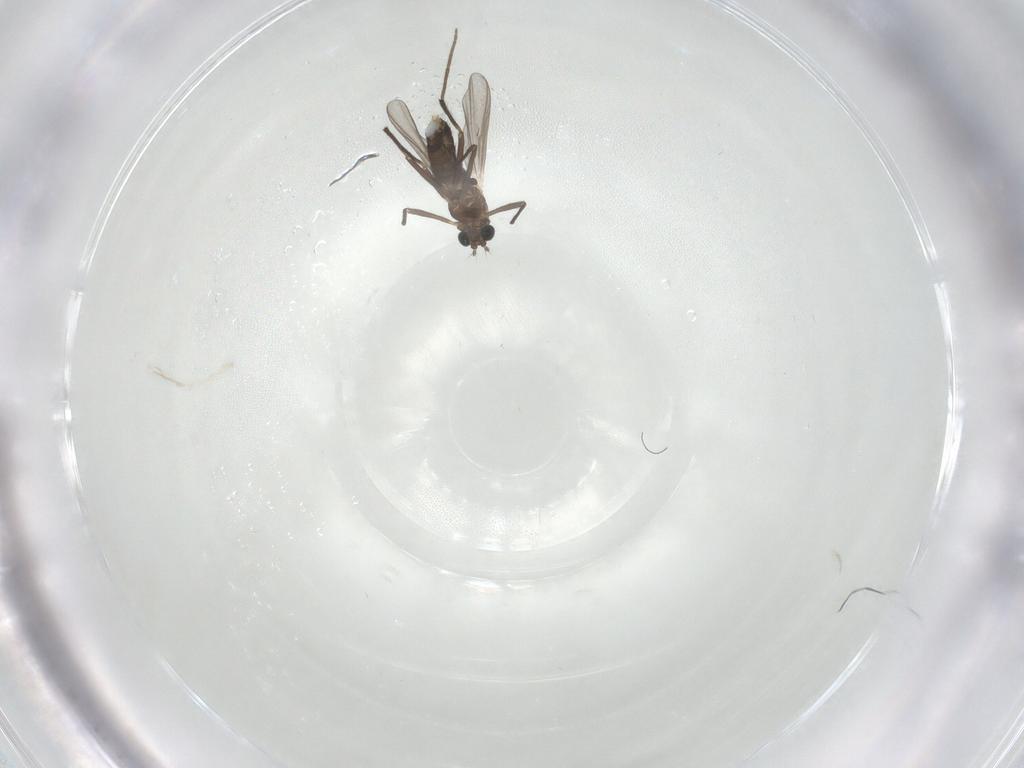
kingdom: Animalia
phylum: Arthropoda
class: Insecta
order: Diptera
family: Chironomidae
